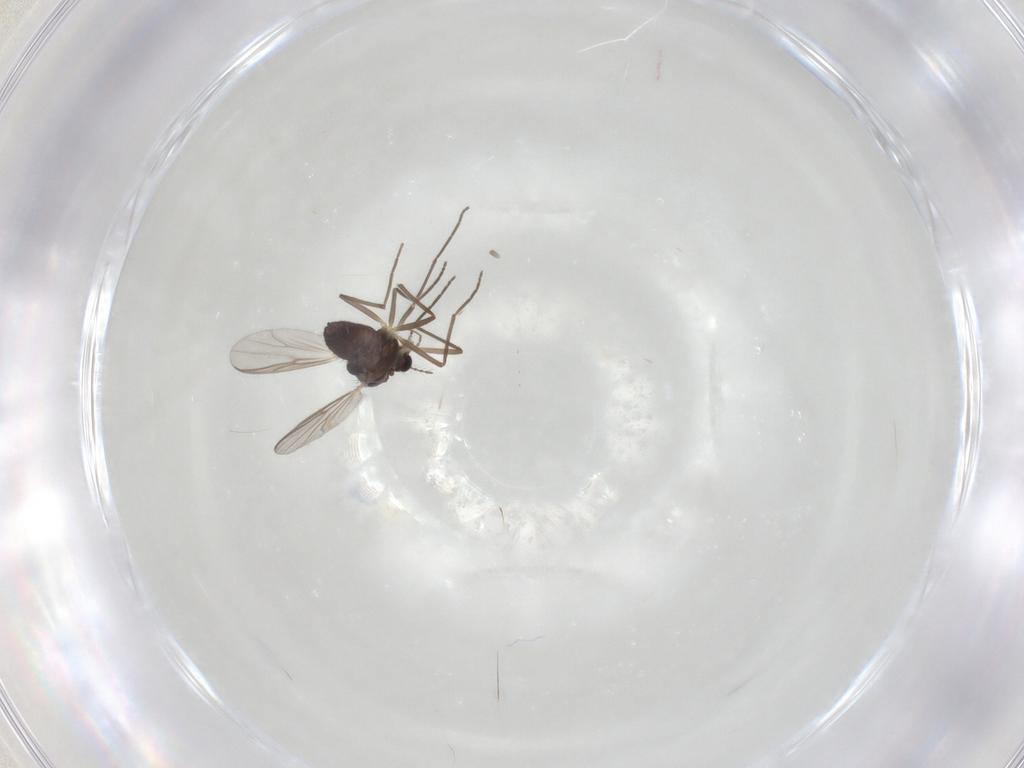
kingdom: Animalia
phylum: Arthropoda
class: Insecta
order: Diptera
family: Chironomidae
